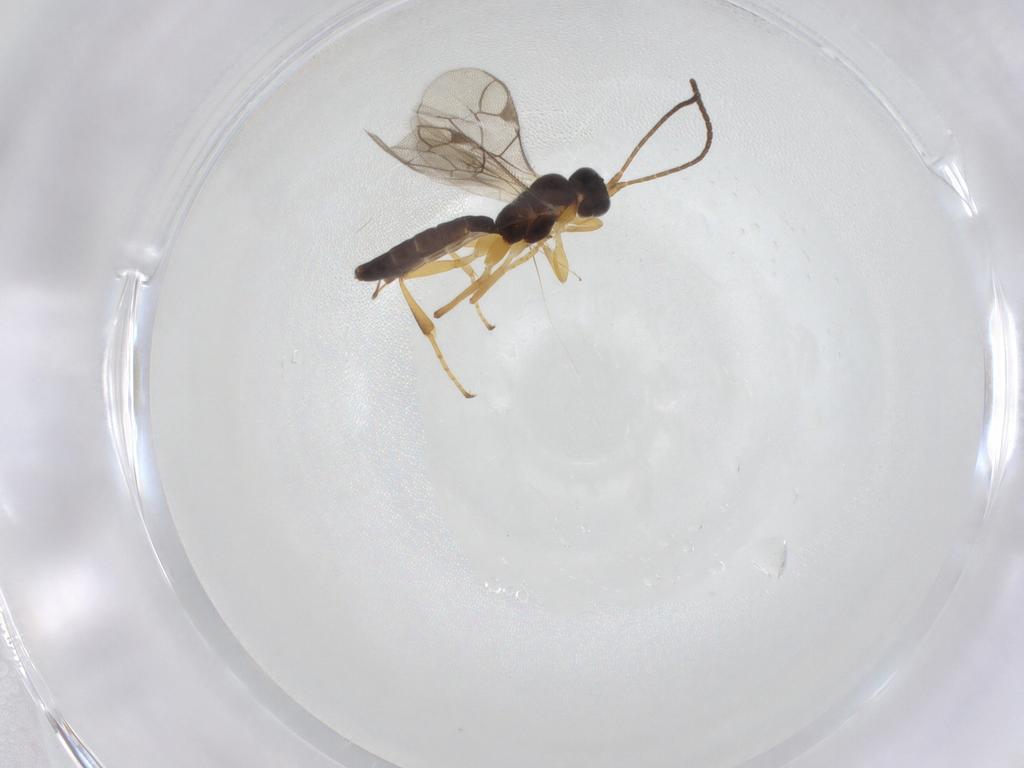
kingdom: Animalia
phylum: Arthropoda
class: Insecta
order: Hymenoptera
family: Ichneumonidae
